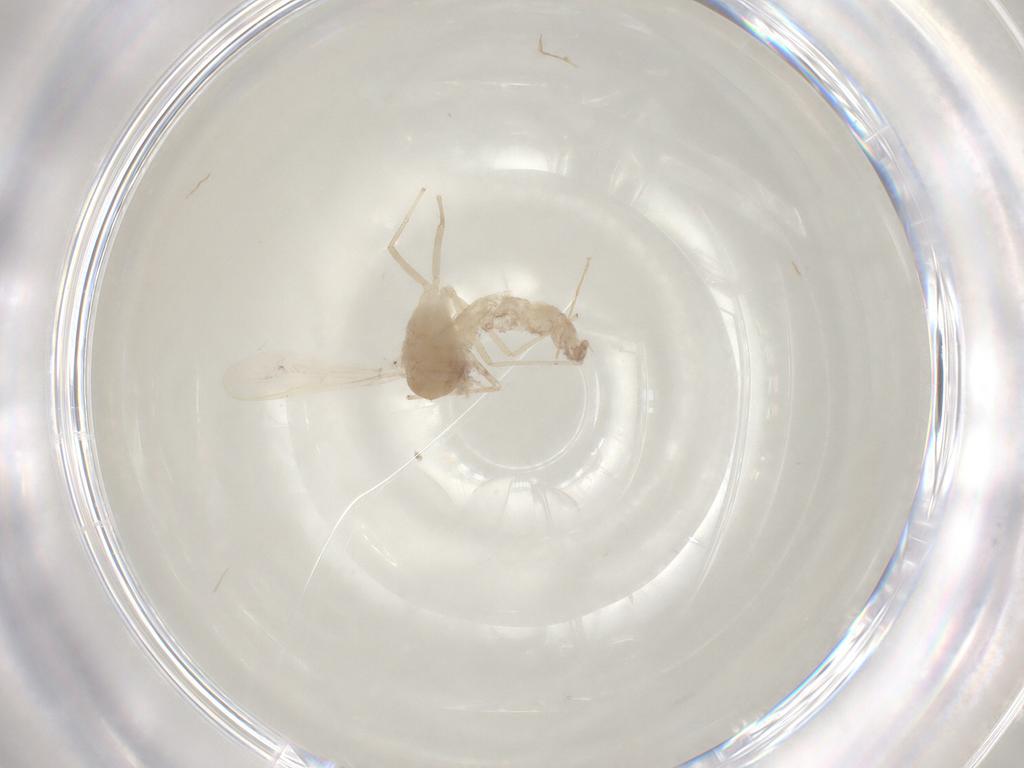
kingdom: Animalia
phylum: Arthropoda
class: Insecta
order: Diptera
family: Chironomidae
